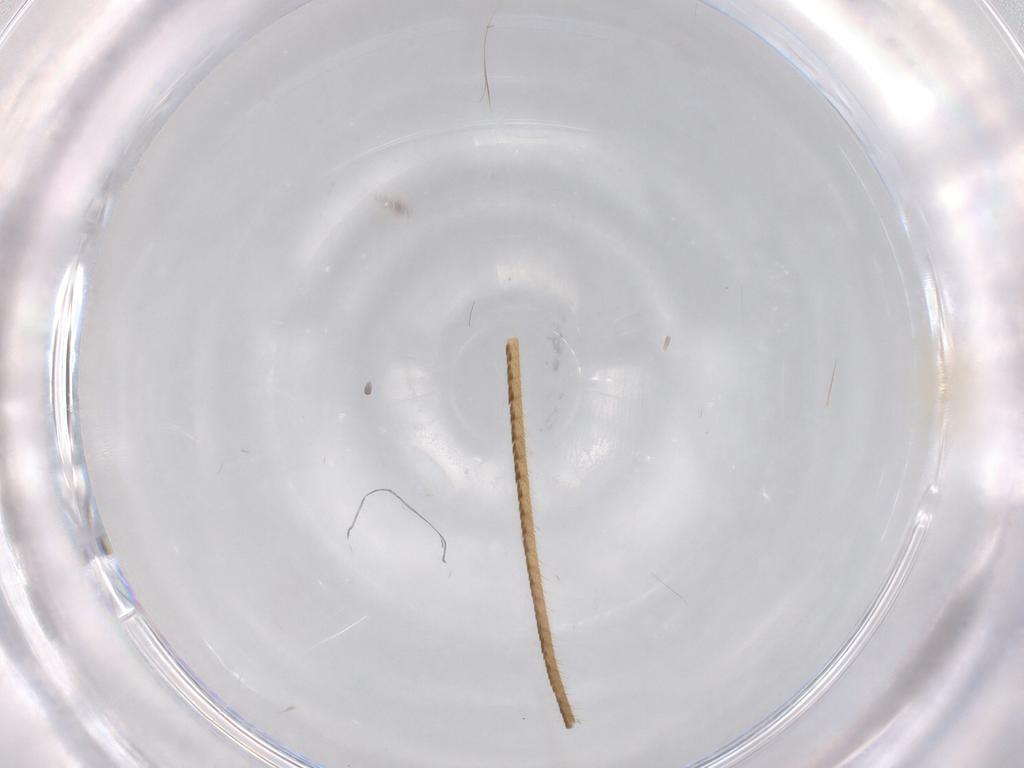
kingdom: Animalia
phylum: Arthropoda
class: Insecta
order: Diptera
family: Cecidomyiidae
